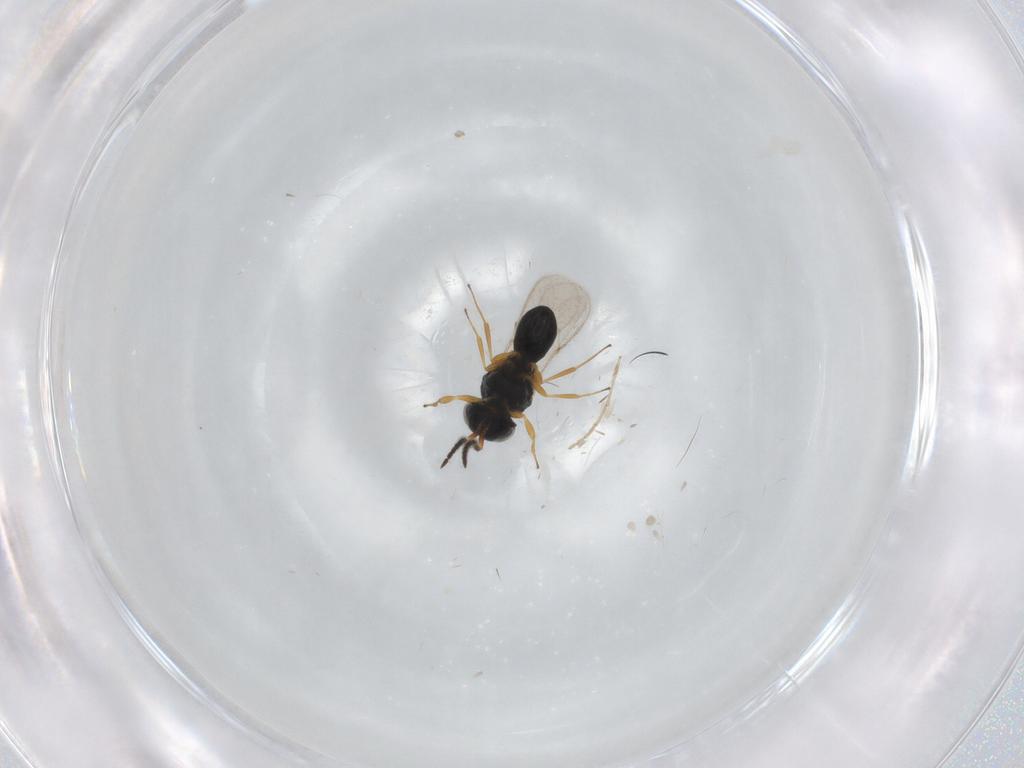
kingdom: Animalia
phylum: Arthropoda
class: Insecta
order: Hymenoptera
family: Scelionidae
